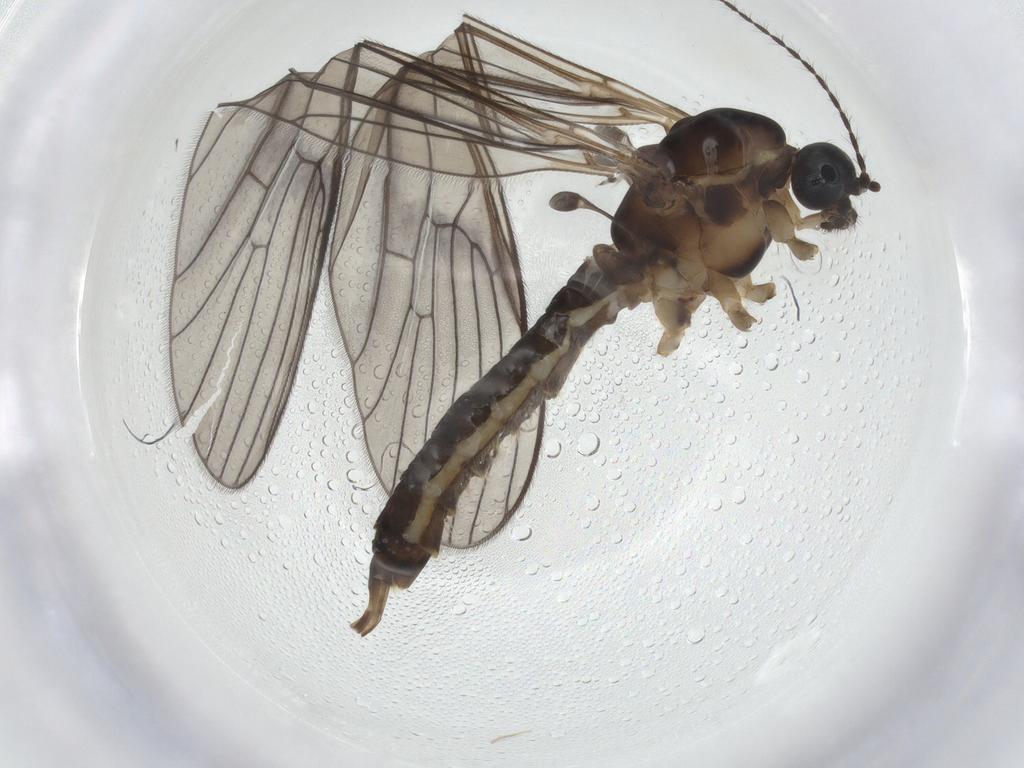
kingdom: Animalia
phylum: Arthropoda
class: Insecta
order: Diptera
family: Limoniidae
